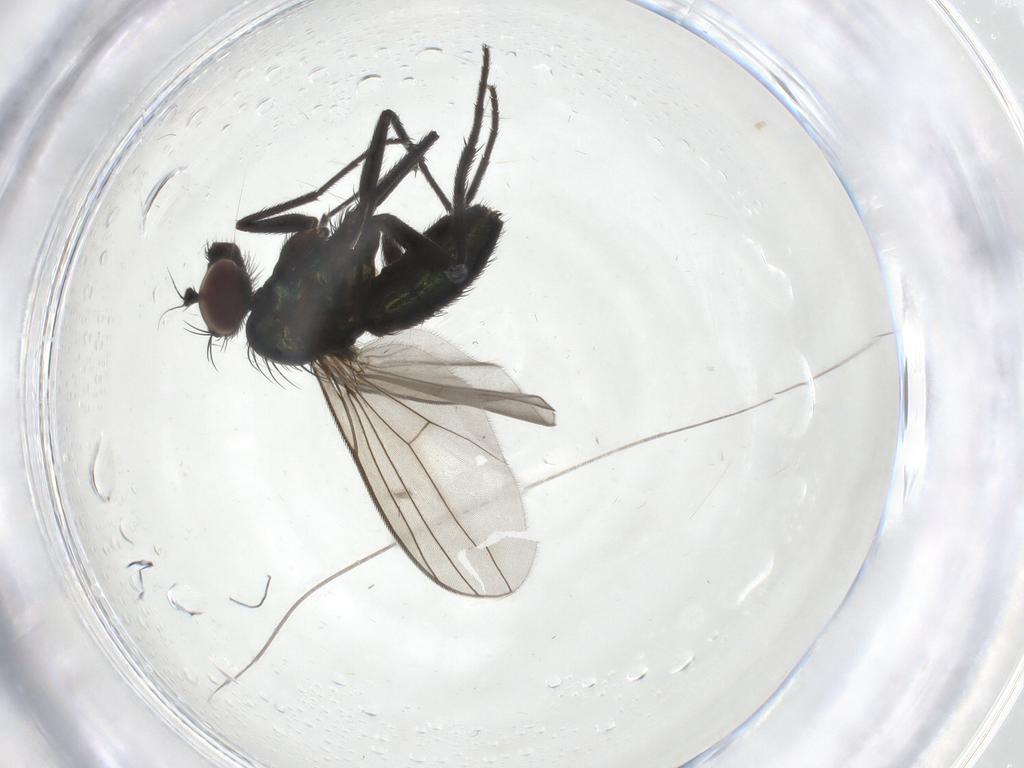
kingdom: Animalia
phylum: Arthropoda
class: Insecta
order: Diptera
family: Dolichopodidae
